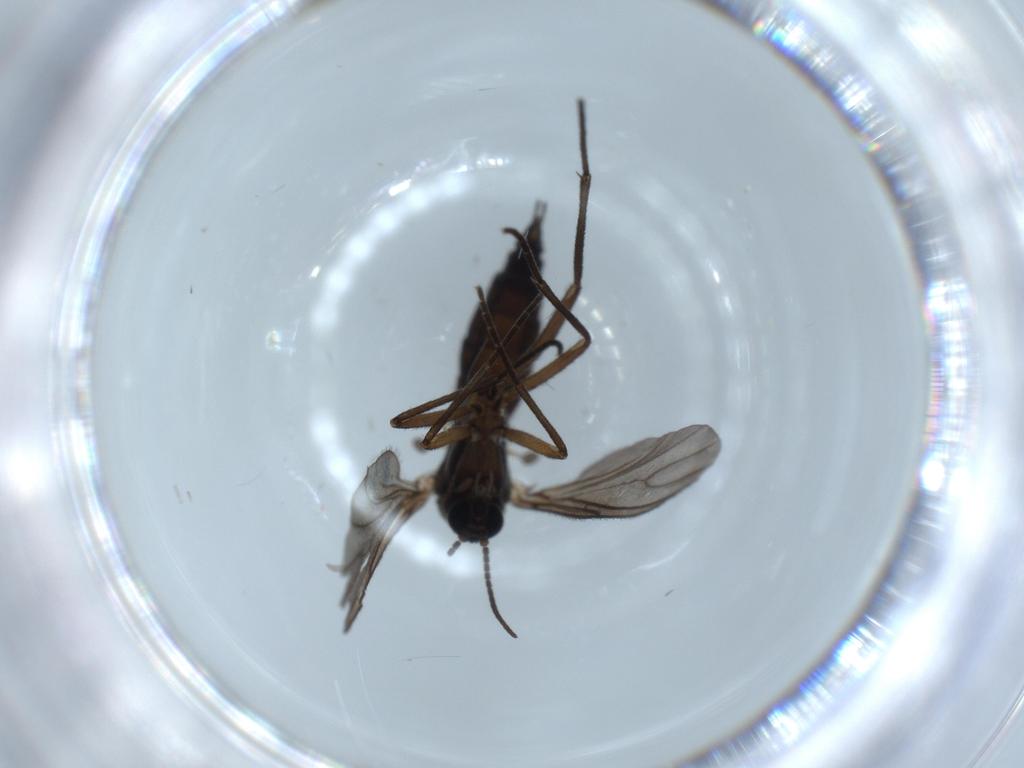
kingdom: Animalia
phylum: Arthropoda
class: Insecta
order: Diptera
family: Sciaridae
